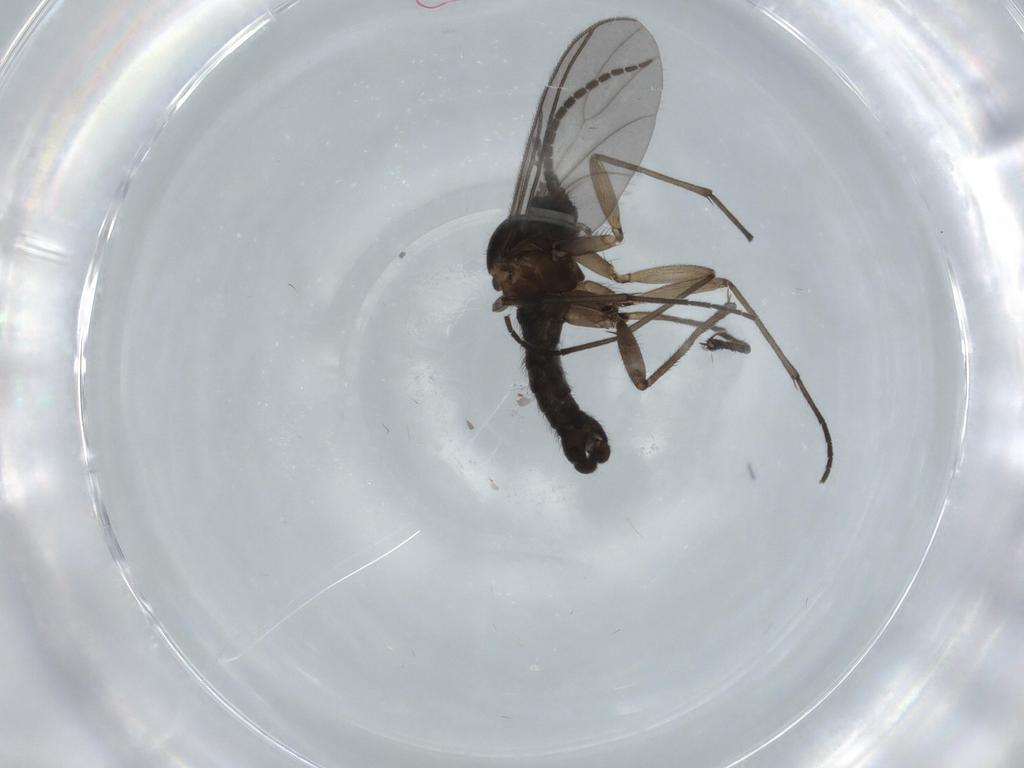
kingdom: Animalia
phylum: Arthropoda
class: Insecta
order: Diptera
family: Sciaridae
